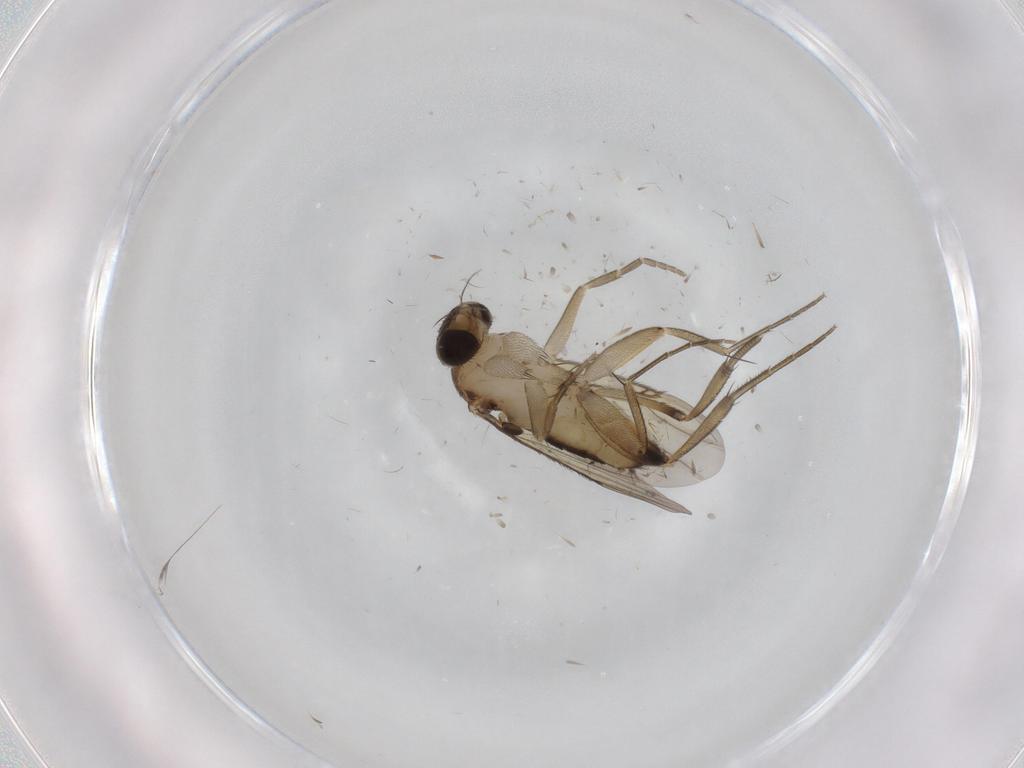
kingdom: Animalia
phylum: Arthropoda
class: Insecta
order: Diptera
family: Phoridae
